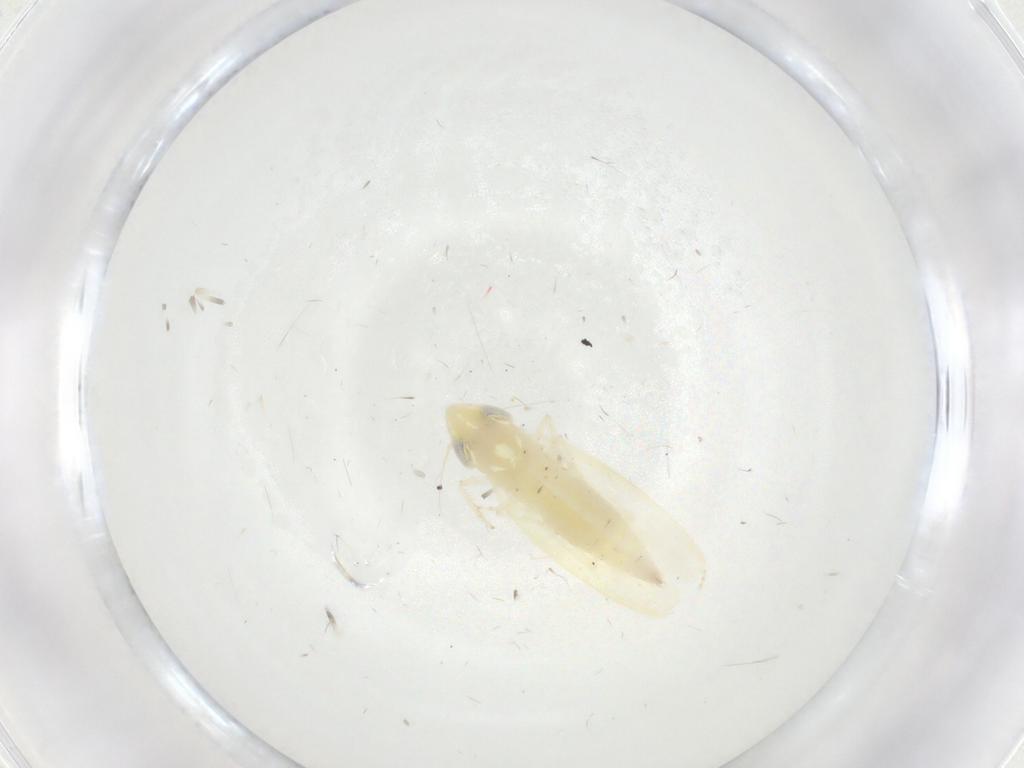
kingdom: Animalia
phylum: Arthropoda
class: Insecta
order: Hemiptera
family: Cicadellidae
